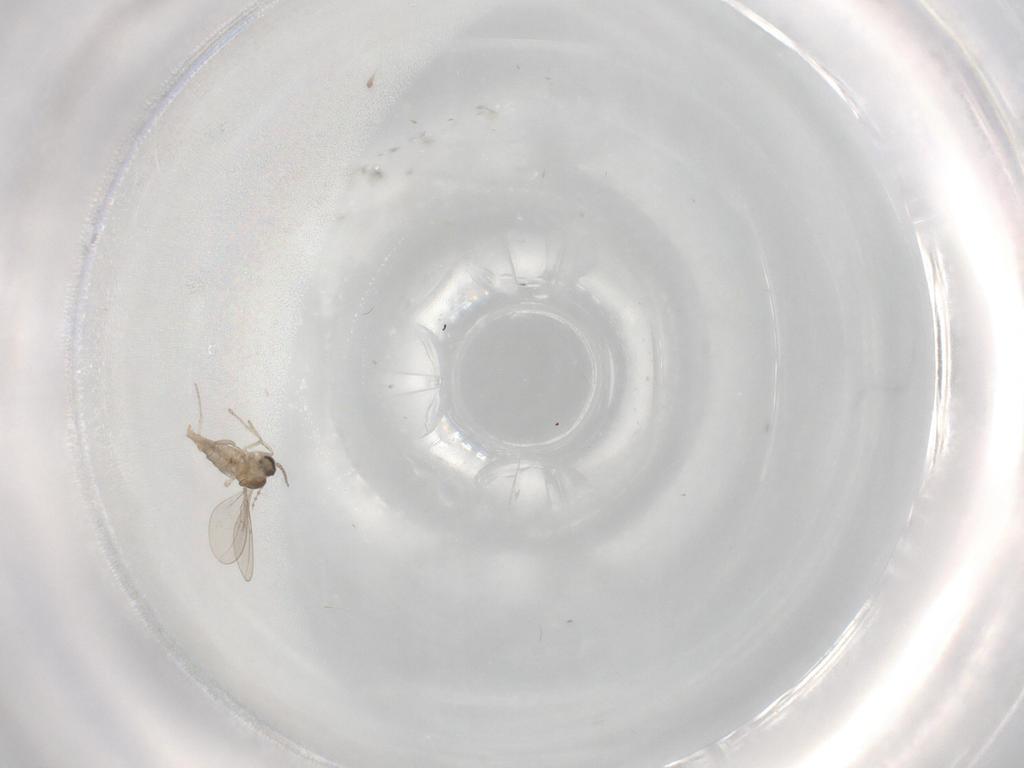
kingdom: Animalia
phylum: Arthropoda
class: Insecta
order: Diptera
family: Cecidomyiidae
